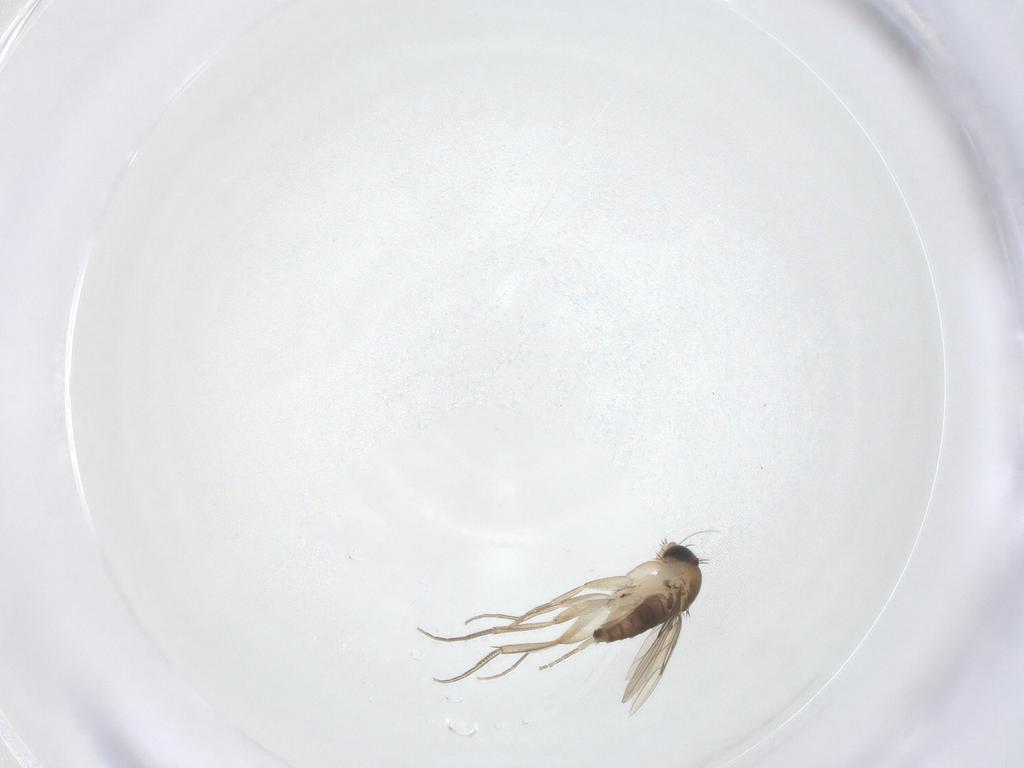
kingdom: Animalia
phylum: Arthropoda
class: Insecta
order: Diptera
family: Phoridae
